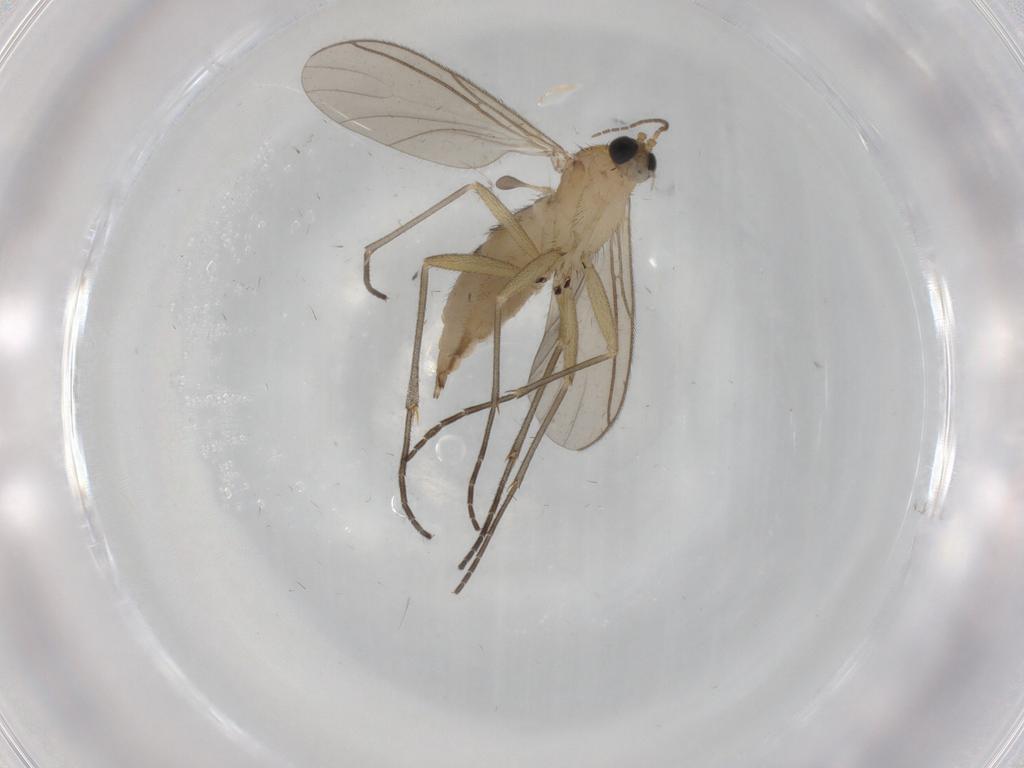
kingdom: Animalia
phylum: Arthropoda
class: Insecta
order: Diptera
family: Sciaridae
